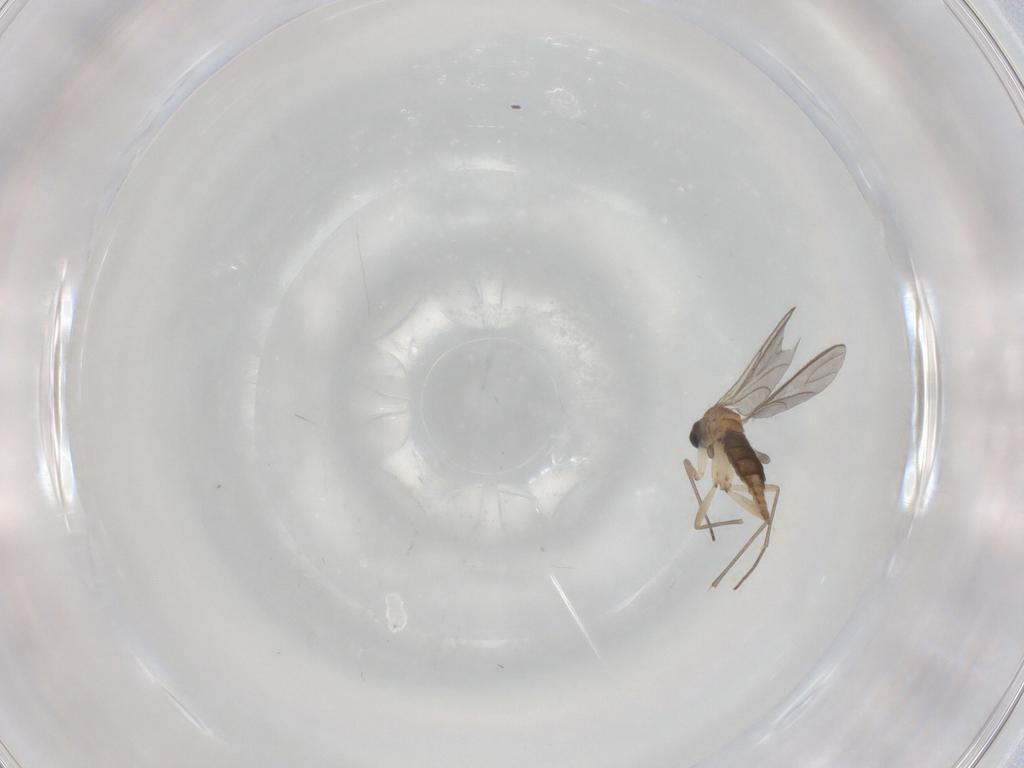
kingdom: Animalia
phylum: Arthropoda
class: Insecta
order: Diptera
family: Sciaridae
